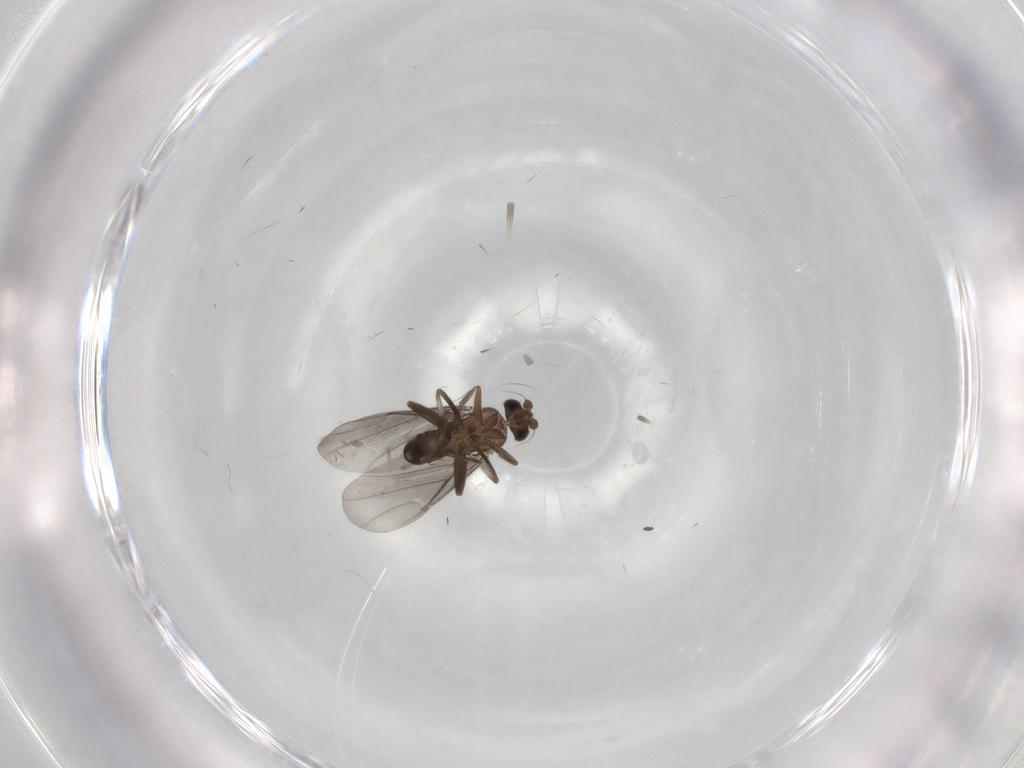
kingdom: Animalia
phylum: Arthropoda
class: Insecta
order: Diptera
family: Phoridae
